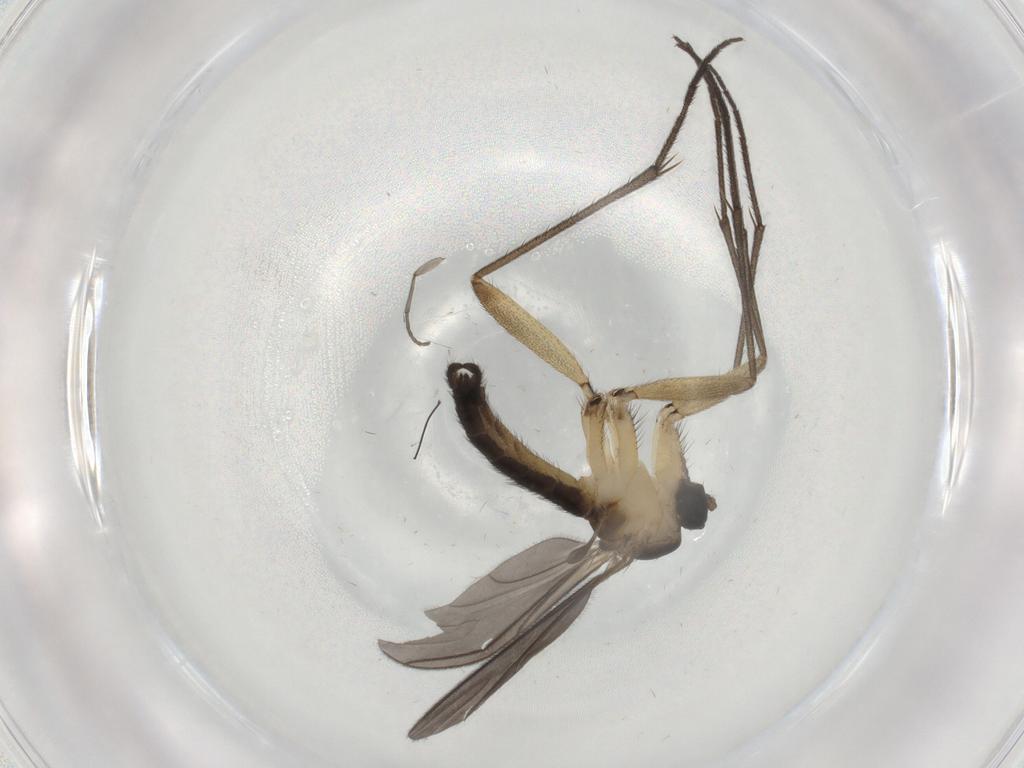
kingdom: Animalia
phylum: Arthropoda
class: Insecta
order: Diptera
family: Sciaridae
